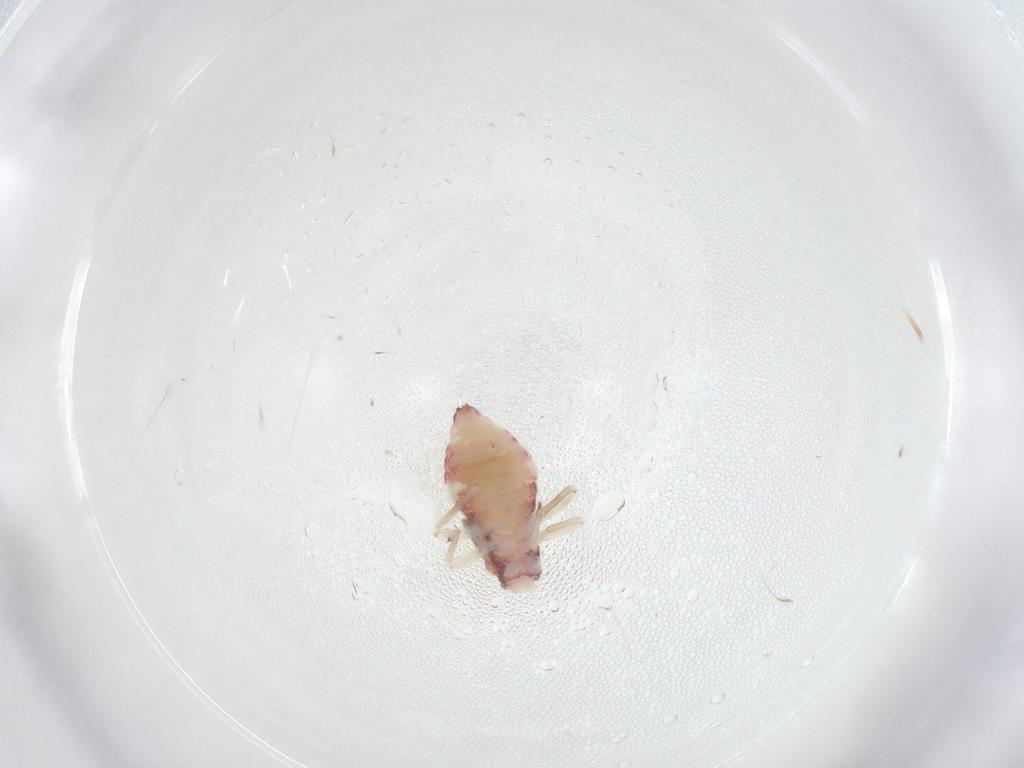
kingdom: Animalia
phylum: Arthropoda
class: Insecta
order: Psocodea
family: Caeciliusidae
